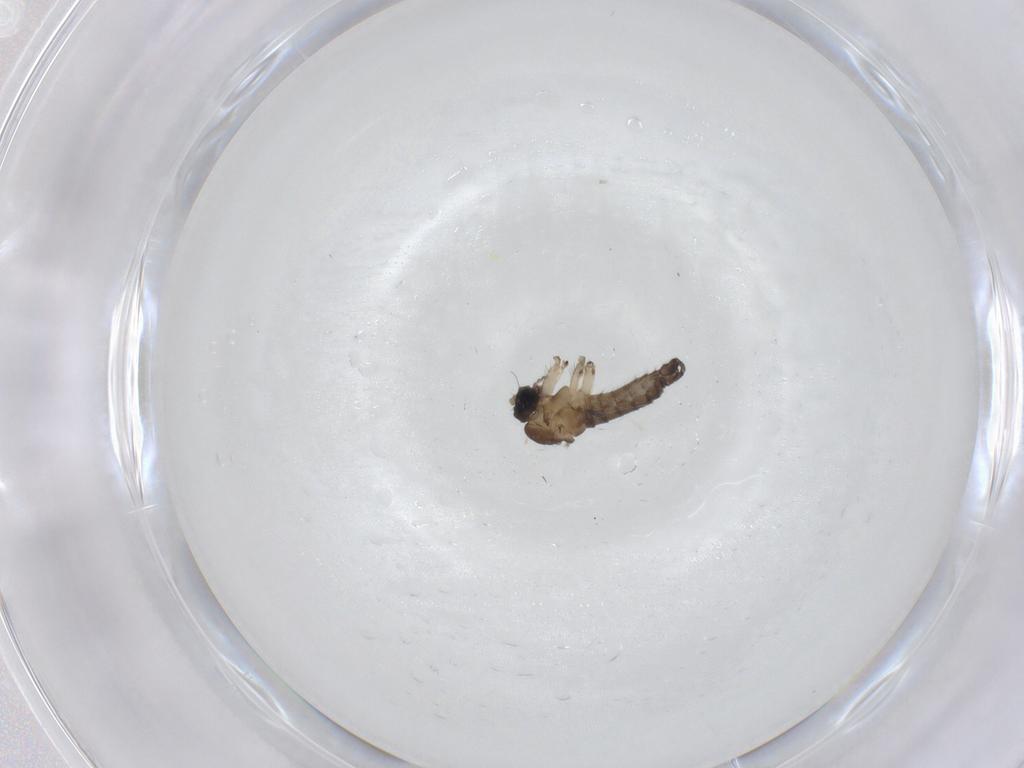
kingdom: Animalia
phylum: Arthropoda
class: Insecta
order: Diptera
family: Sciaridae
